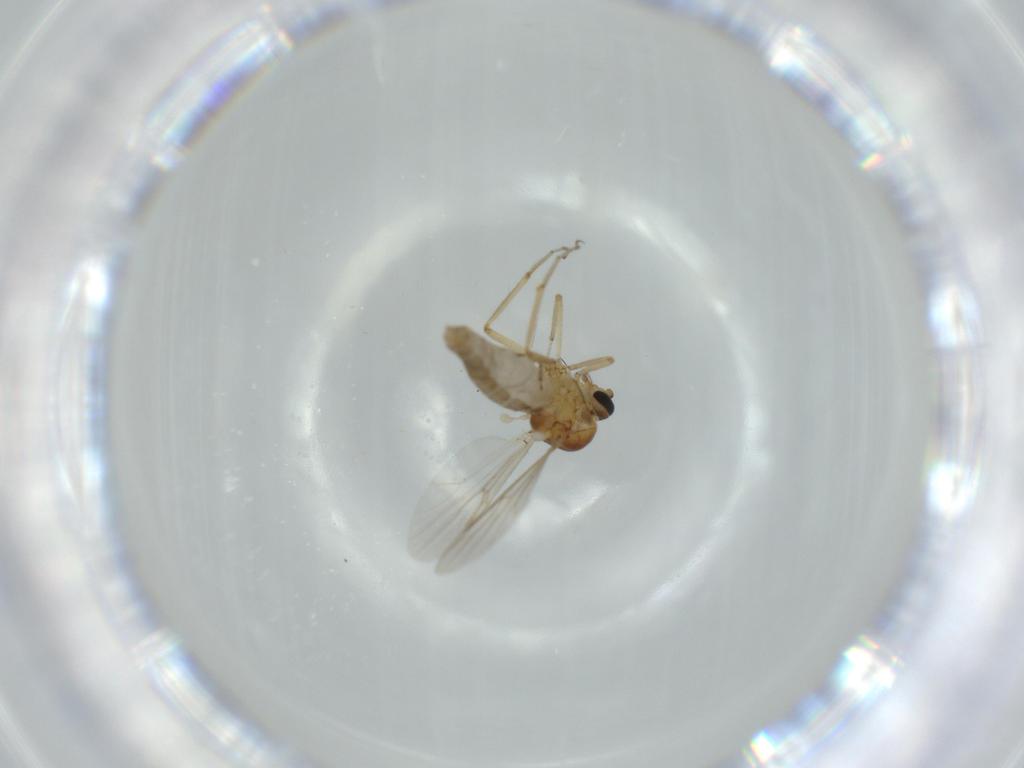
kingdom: Animalia
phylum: Arthropoda
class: Insecta
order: Diptera
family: Ceratopogonidae
